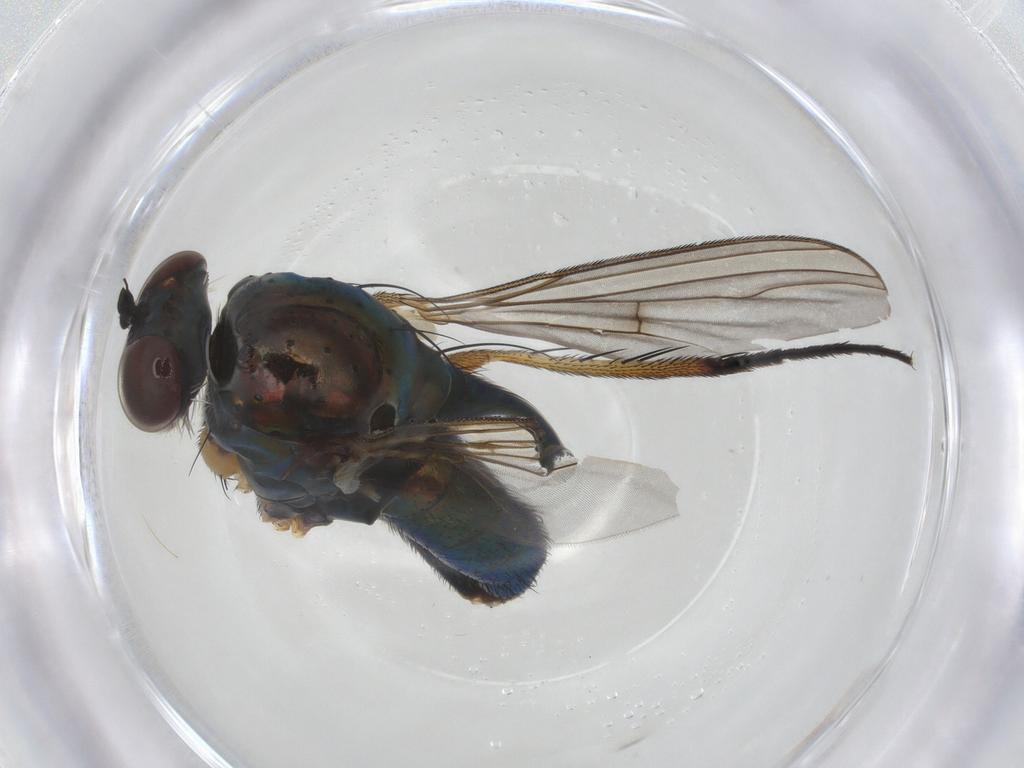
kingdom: Animalia
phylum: Arthropoda
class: Insecta
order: Diptera
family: Dolichopodidae
